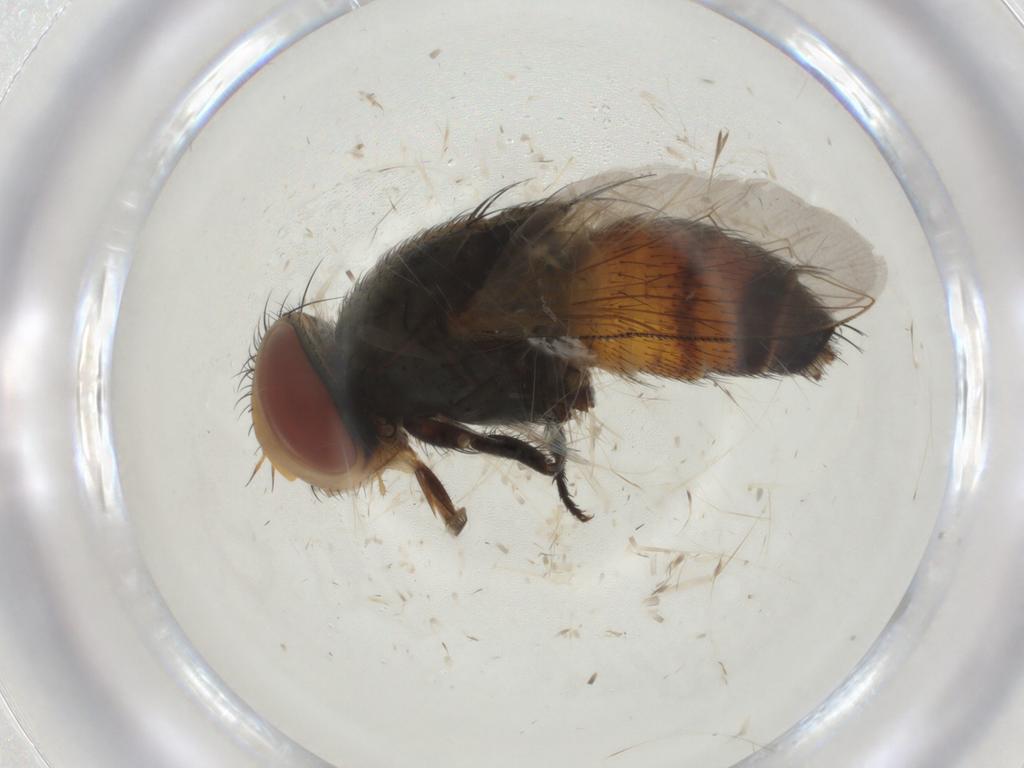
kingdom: Animalia
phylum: Arthropoda
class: Insecta
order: Diptera
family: Sarcophagidae
